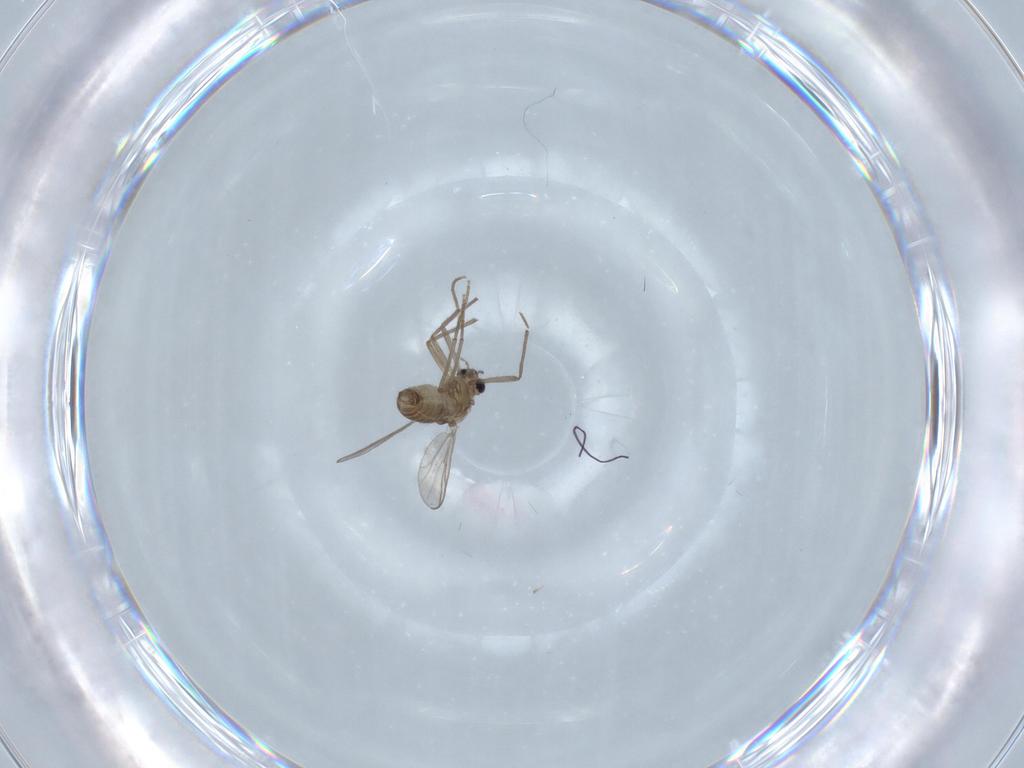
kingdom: Animalia
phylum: Arthropoda
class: Insecta
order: Diptera
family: Chironomidae
